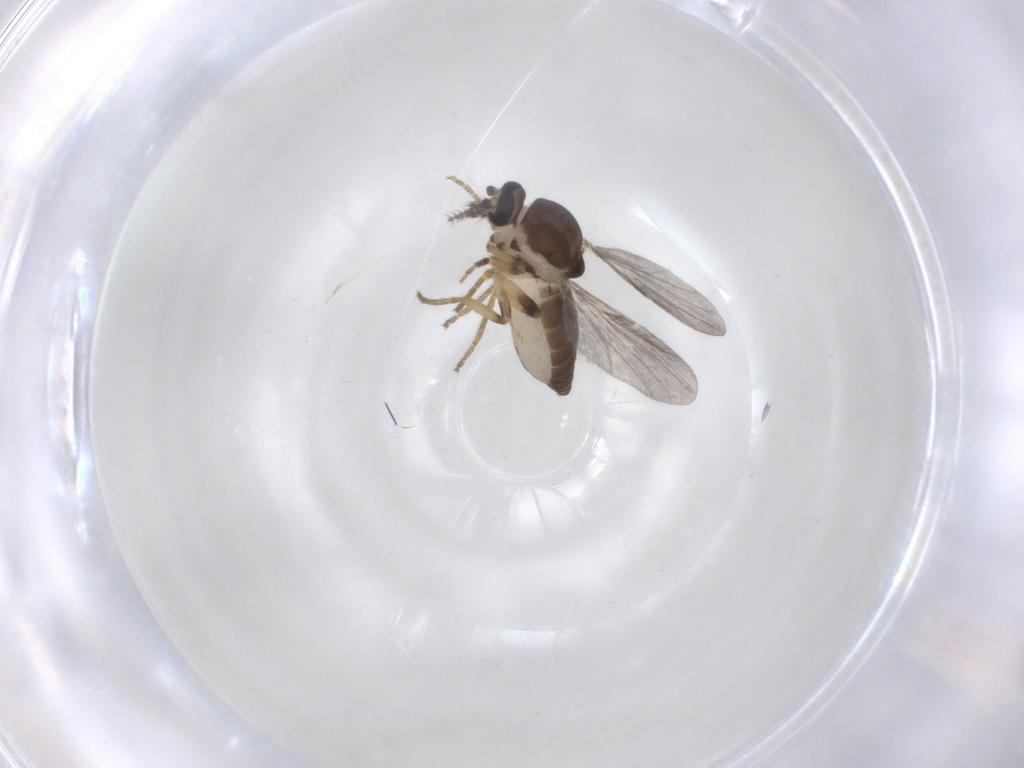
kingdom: Animalia
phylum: Arthropoda
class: Insecta
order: Diptera
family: Ceratopogonidae
